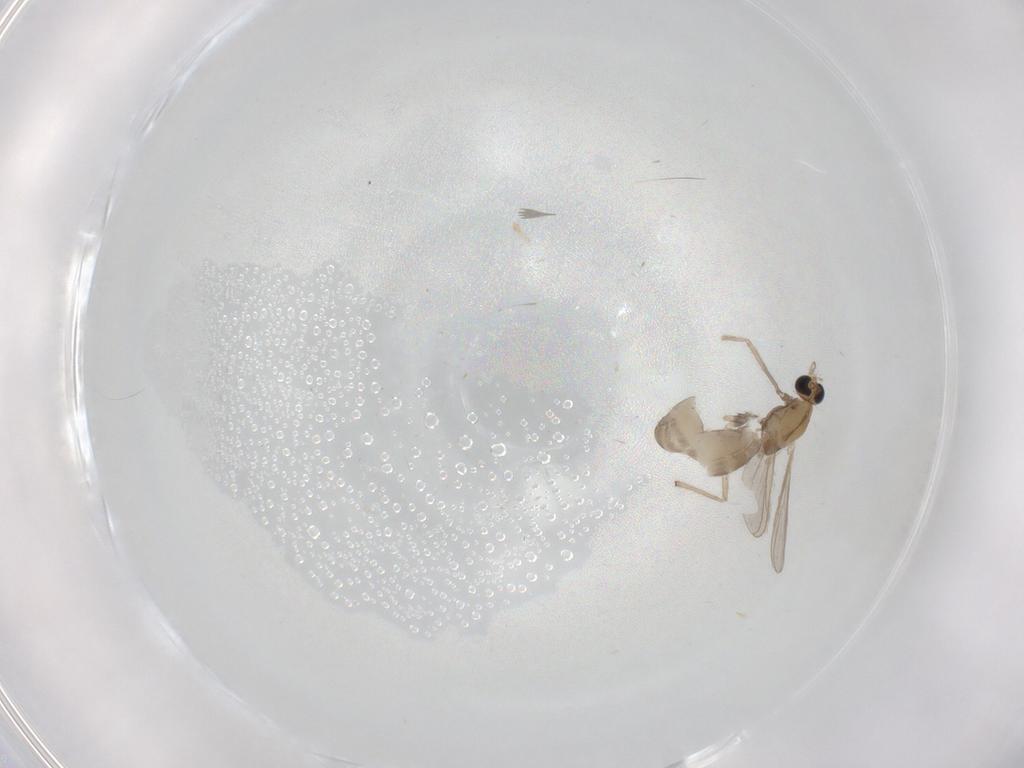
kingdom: Animalia
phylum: Arthropoda
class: Insecta
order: Diptera
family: Chironomidae
